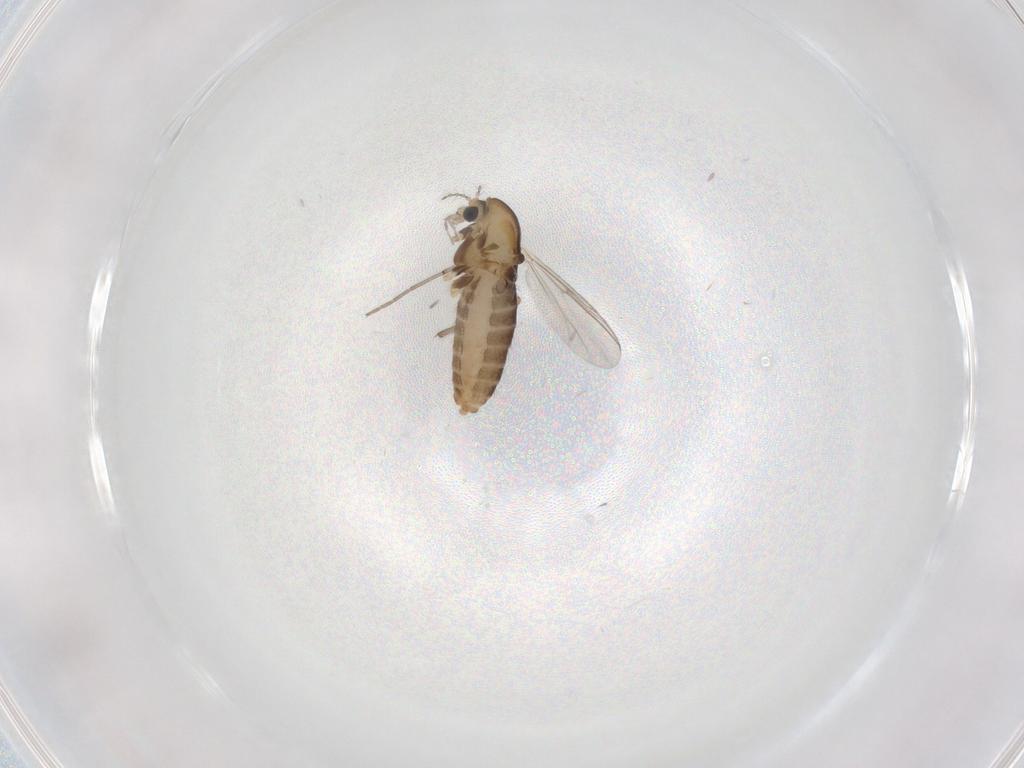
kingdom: Animalia
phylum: Arthropoda
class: Insecta
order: Diptera
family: Chironomidae
